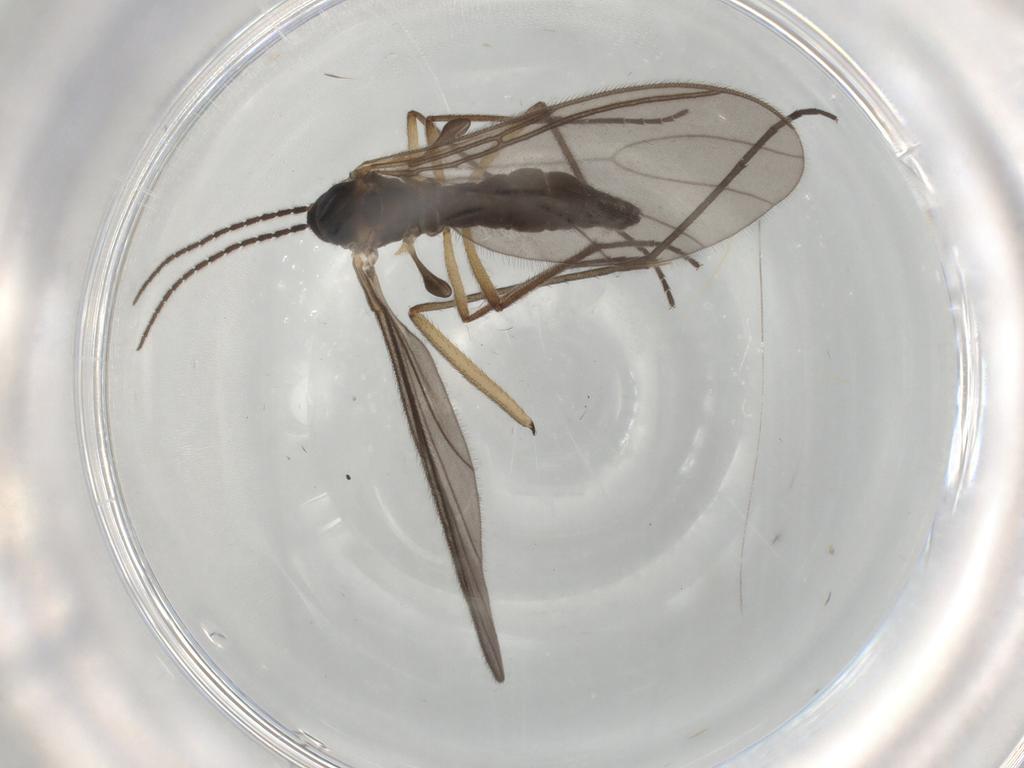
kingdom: Animalia
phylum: Arthropoda
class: Insecta
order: Diptera
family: Sciaridae
